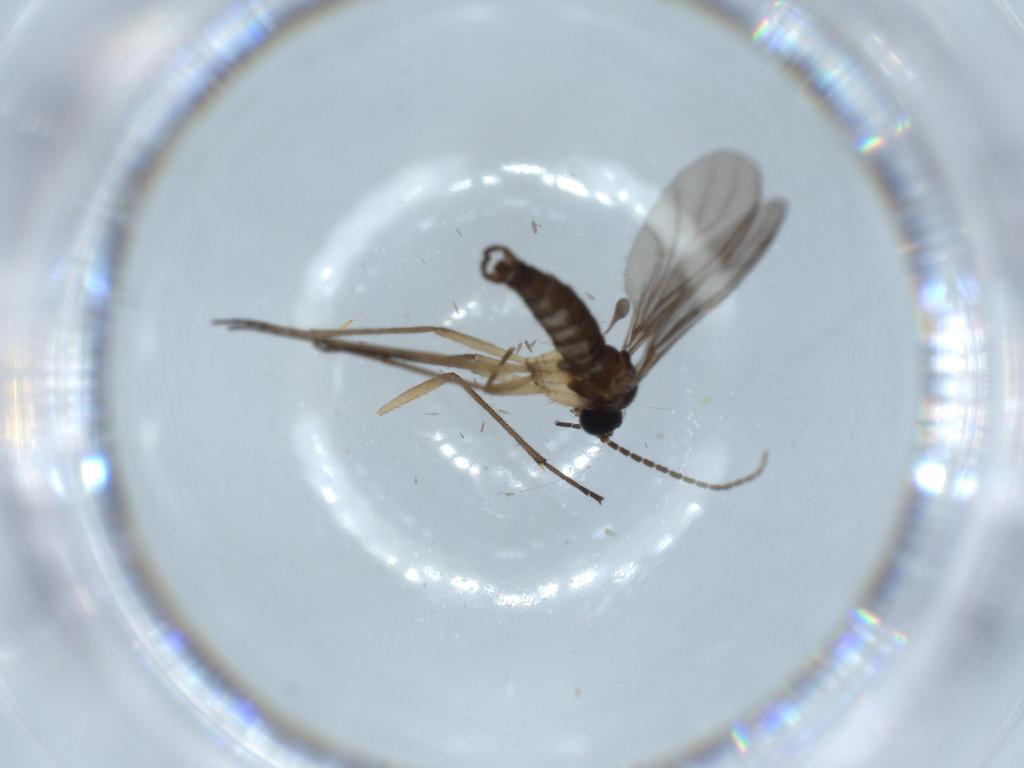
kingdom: Animalia
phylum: Arthropoda
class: Insecta
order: Diptera
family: Sciaridae
